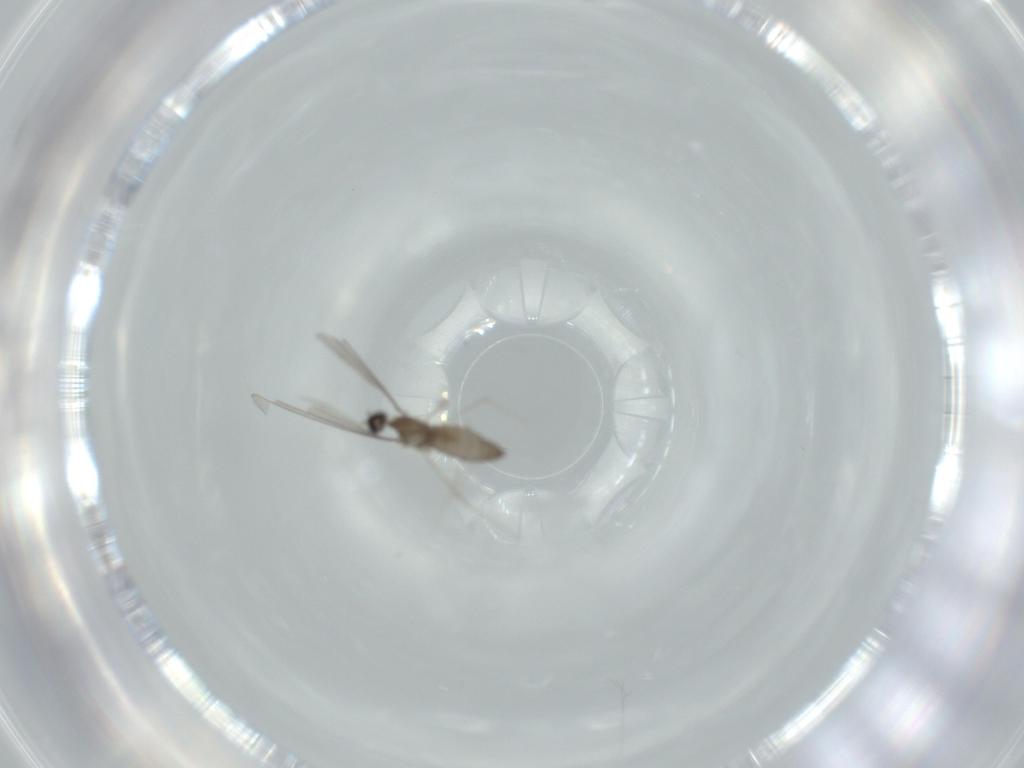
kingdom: Animalia
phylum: Arthropoda
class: Insecta
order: Diptera
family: Cecidomyiidae
